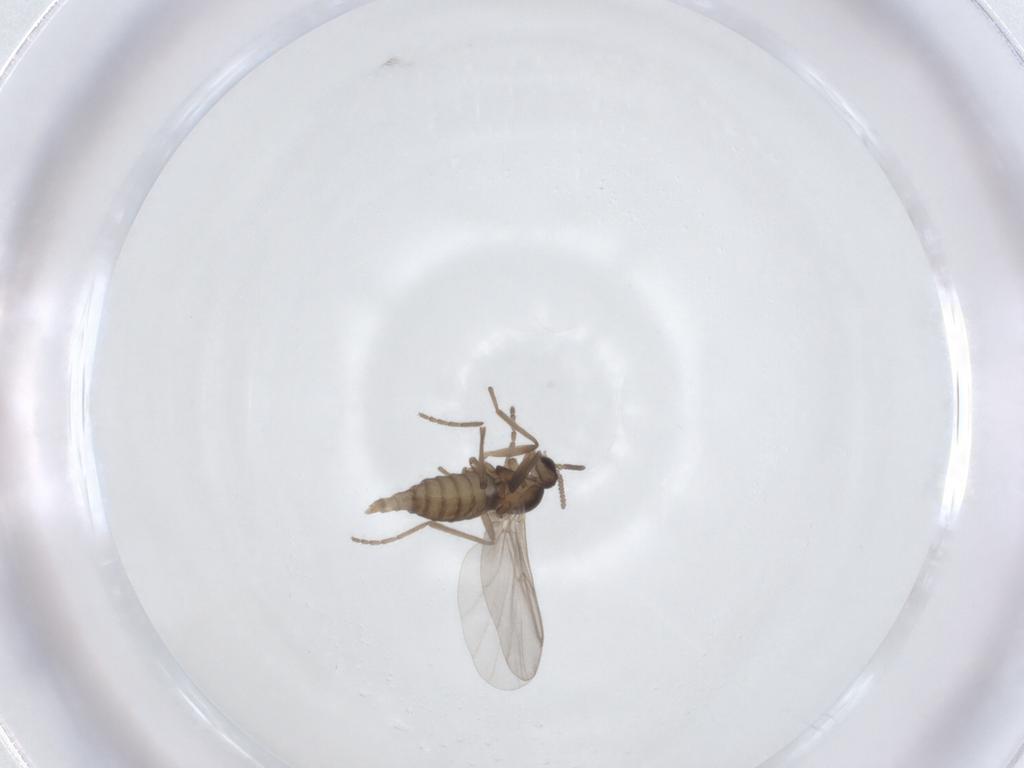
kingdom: Animalia
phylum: Arthropoda
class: Insecta
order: Diptera
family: Cecidomyiidae
